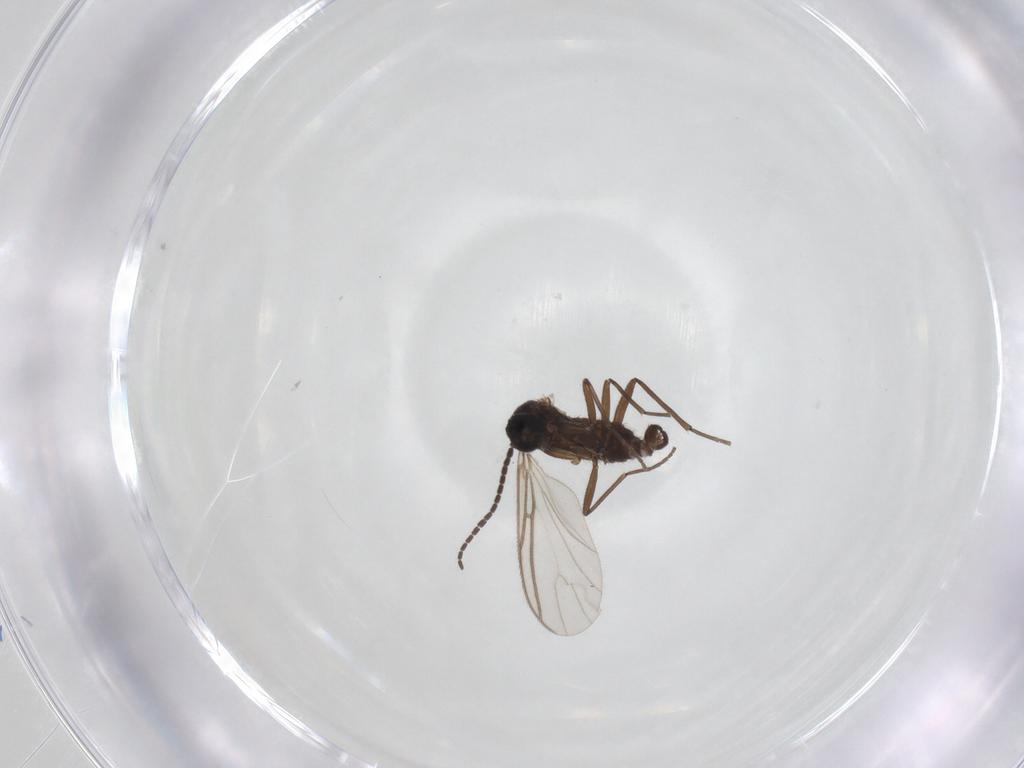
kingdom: Animalia
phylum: Arthropoda
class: Insecta
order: Diptera
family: Sciaridae
